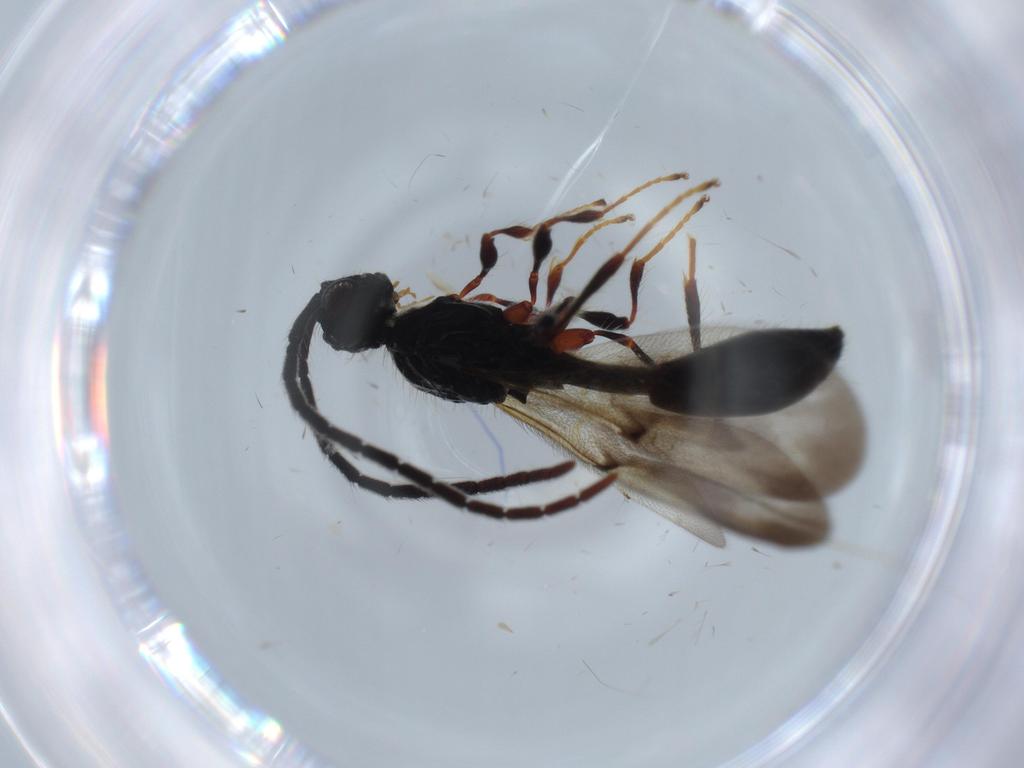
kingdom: Animalia
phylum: Arthropoda
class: Insecta
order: Hymenoptera
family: Diapriidae
